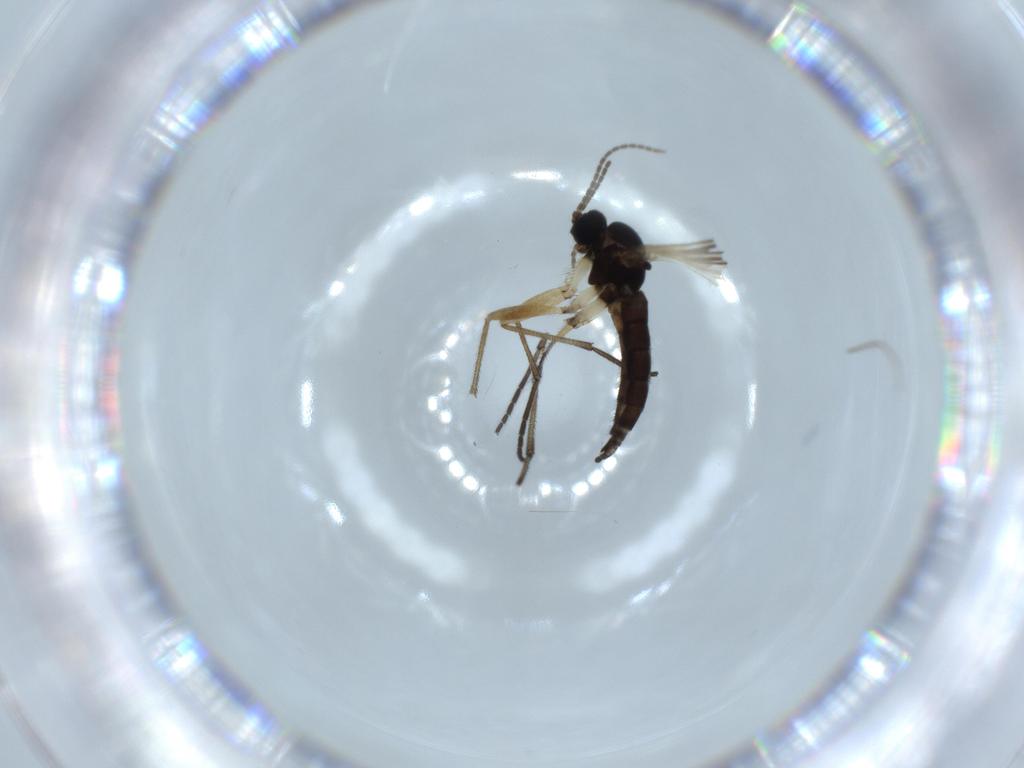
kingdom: Animalia
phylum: Arthropoda
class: Insecta
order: Diptera
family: Sciaridae
